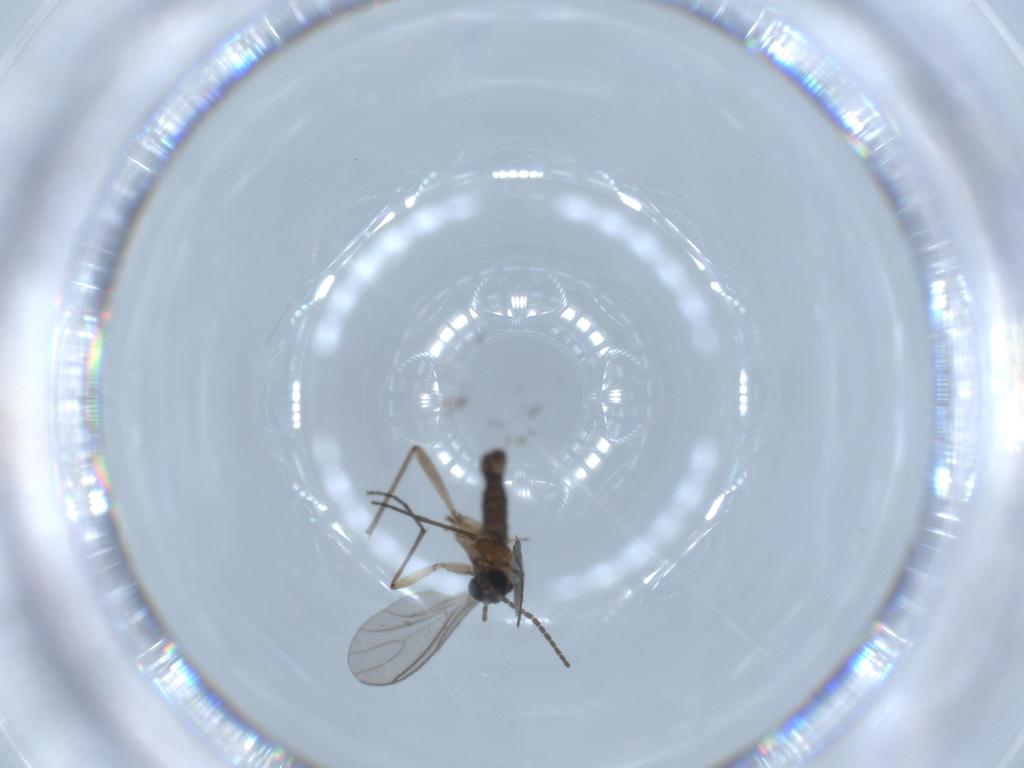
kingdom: Animalia
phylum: Arthropoda
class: Insecta
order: Diptera
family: Sciaridae
